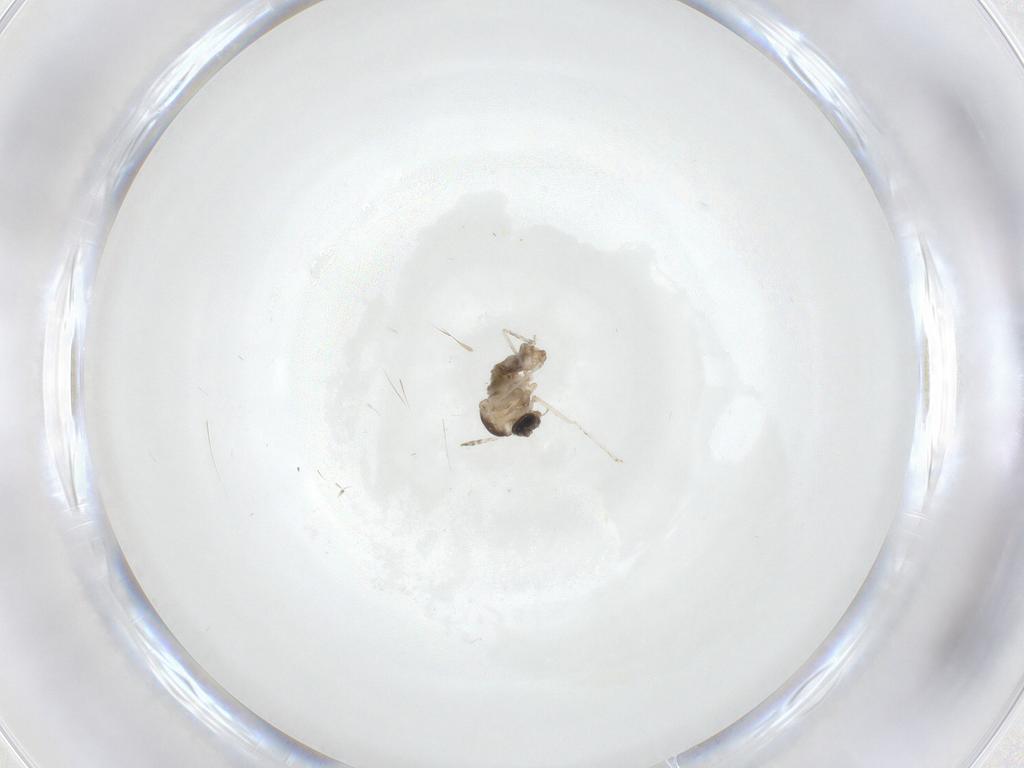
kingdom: Animalia
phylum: Arthropoda
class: Insecta
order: Diptera
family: Cecidomyiidae
